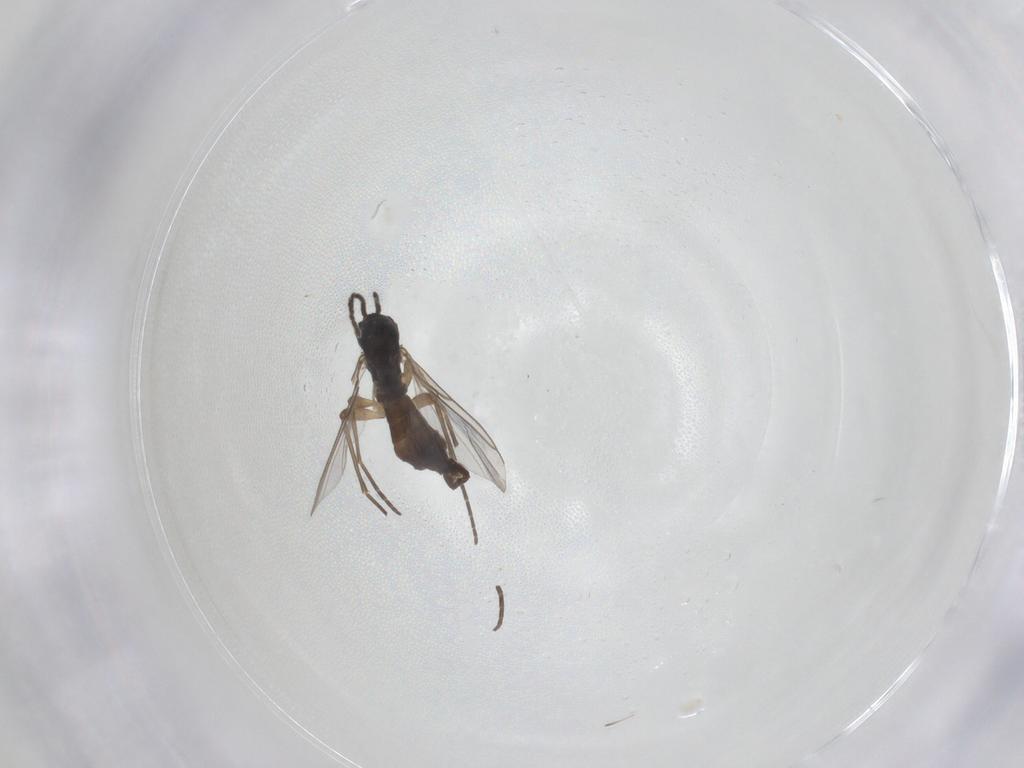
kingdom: Animalia
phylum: Arthropoda
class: Insecta
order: Diptera
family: Sciaridae
